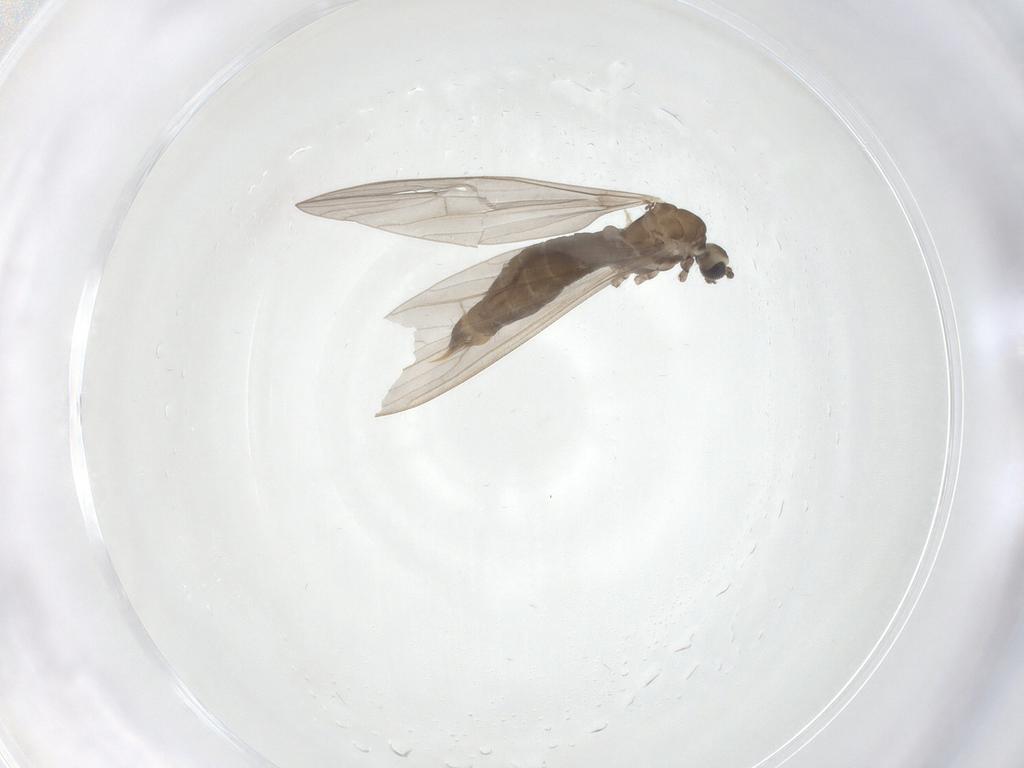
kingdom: Animalia
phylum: Arthropoda
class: Insecta
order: Diptera
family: Limoniidae
